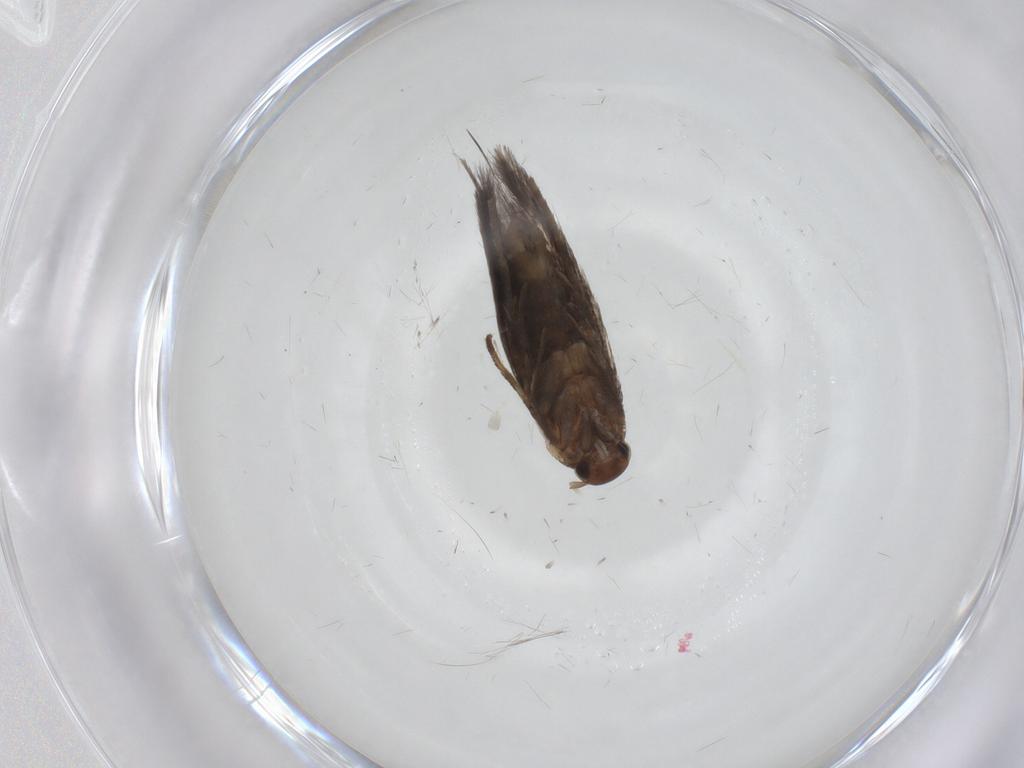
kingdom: Animalia
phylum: Arthropoda
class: Insecta
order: Lepidoptera
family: Elachistidae
